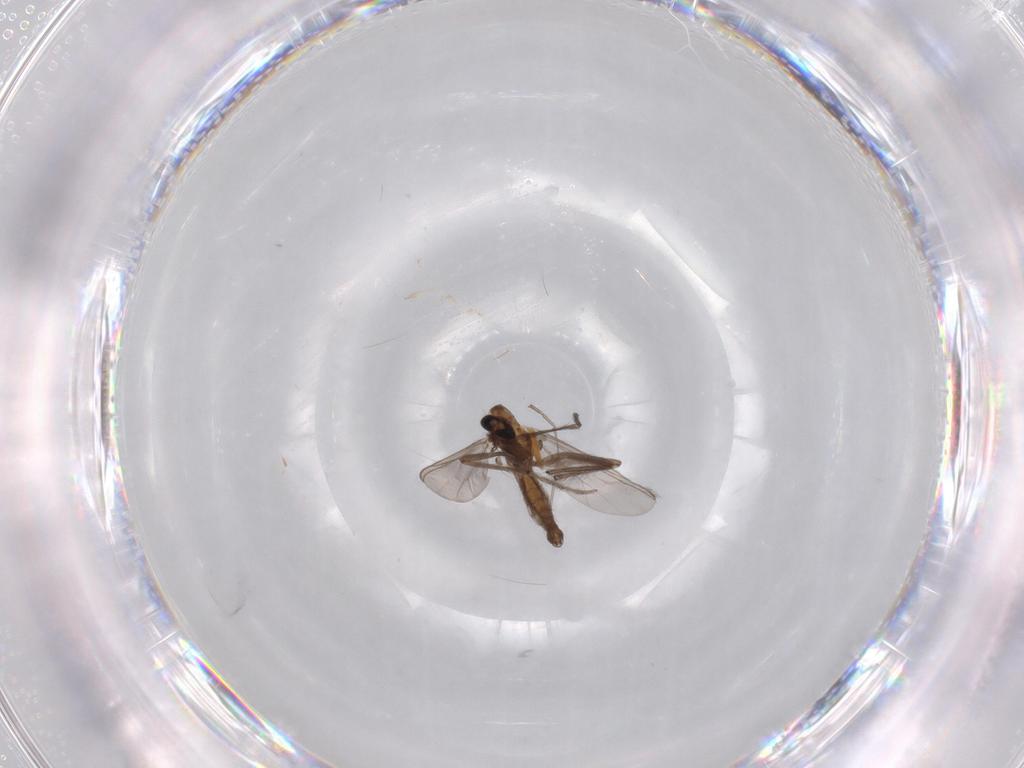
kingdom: Animalia
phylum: Arthropoda
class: Insecta
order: Diptera
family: Chironomidae
